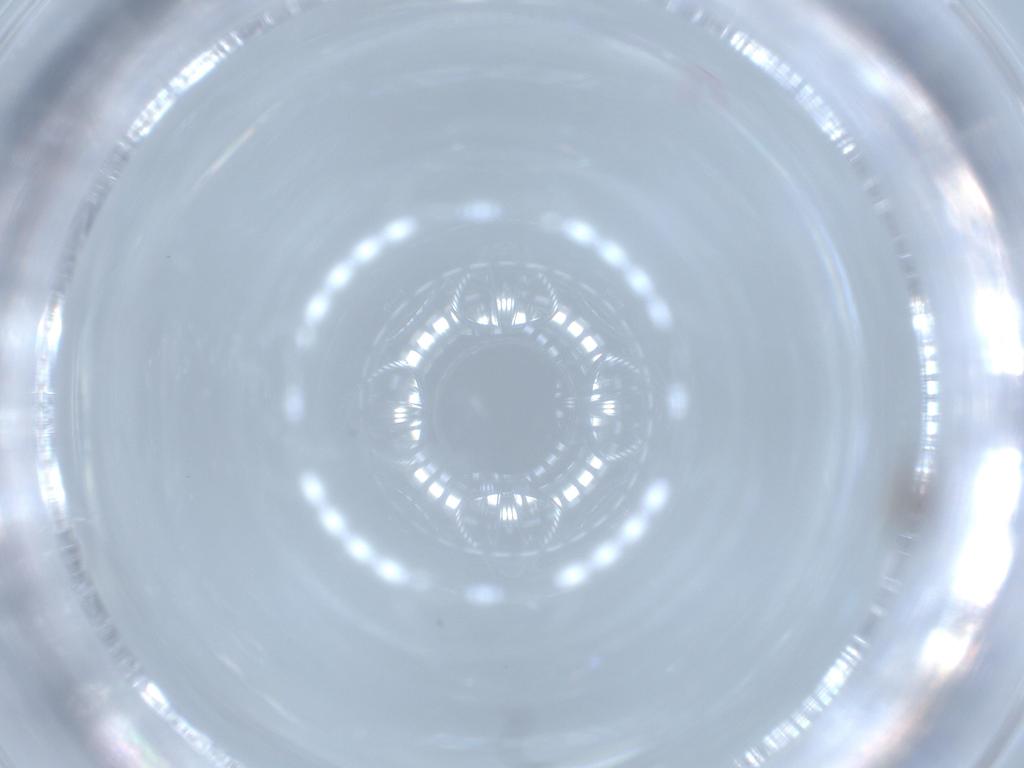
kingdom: Animalia
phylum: Arthropoda
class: Insecta
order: Hymenoptera
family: Mymaridae
